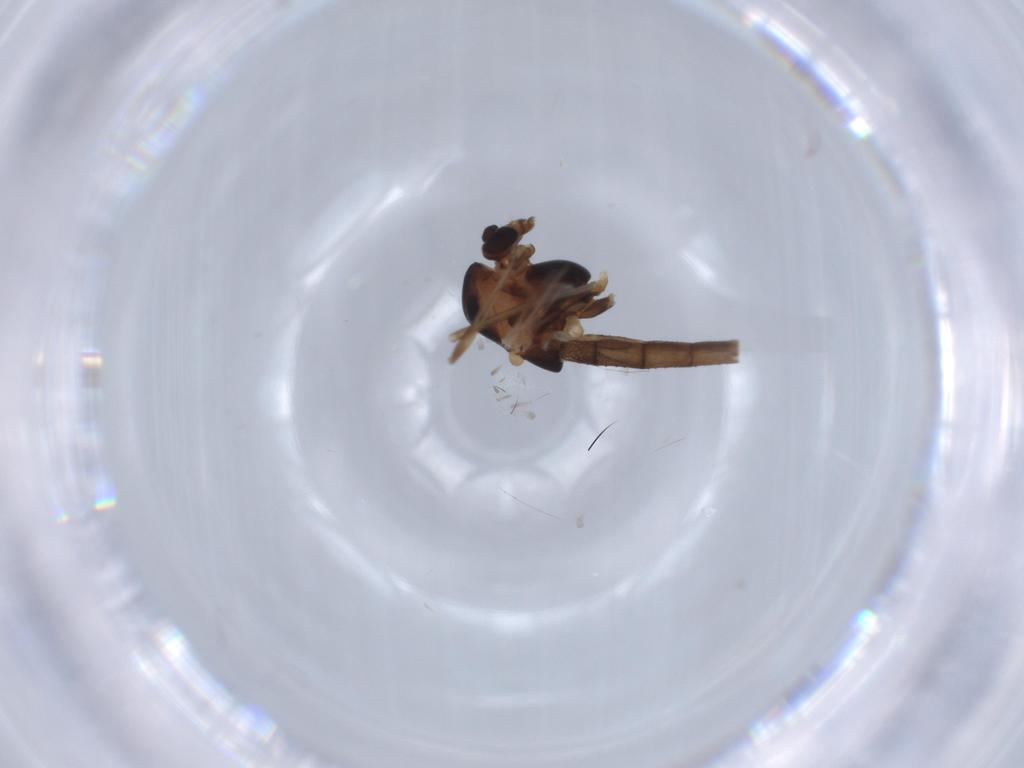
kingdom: Animalia
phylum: Arthropoda
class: Insecta
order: Diptera
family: Chironomidae
